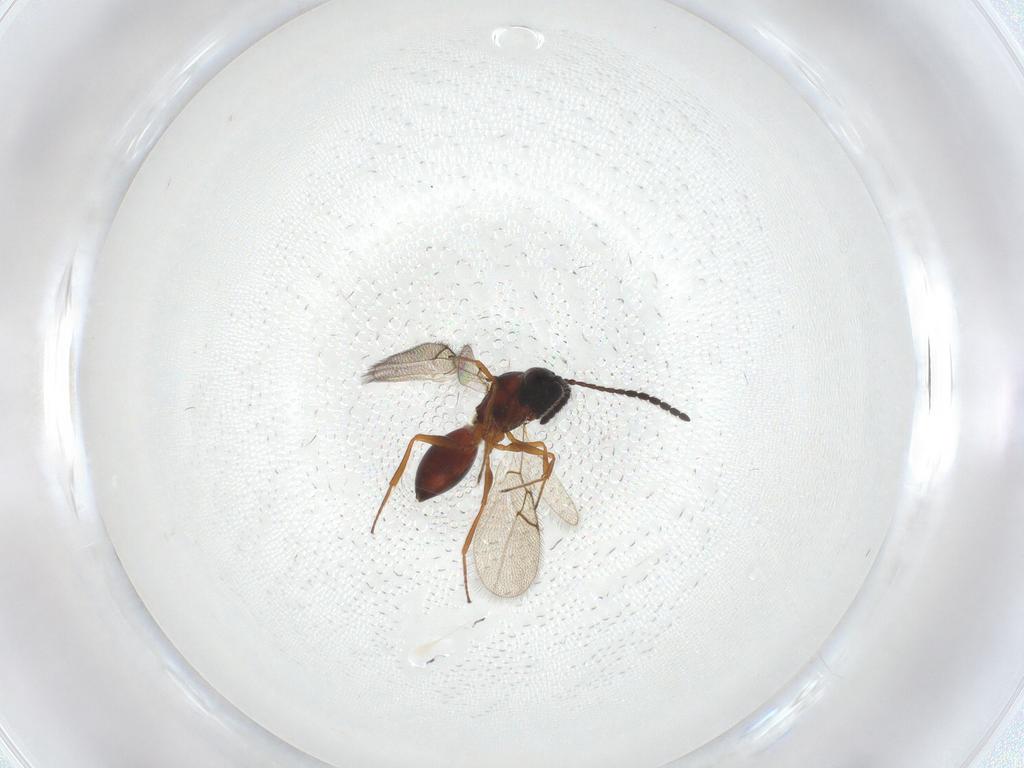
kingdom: Animalia
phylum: Arthropoda
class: Insecta
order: Hymenoptera
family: Figitidae
